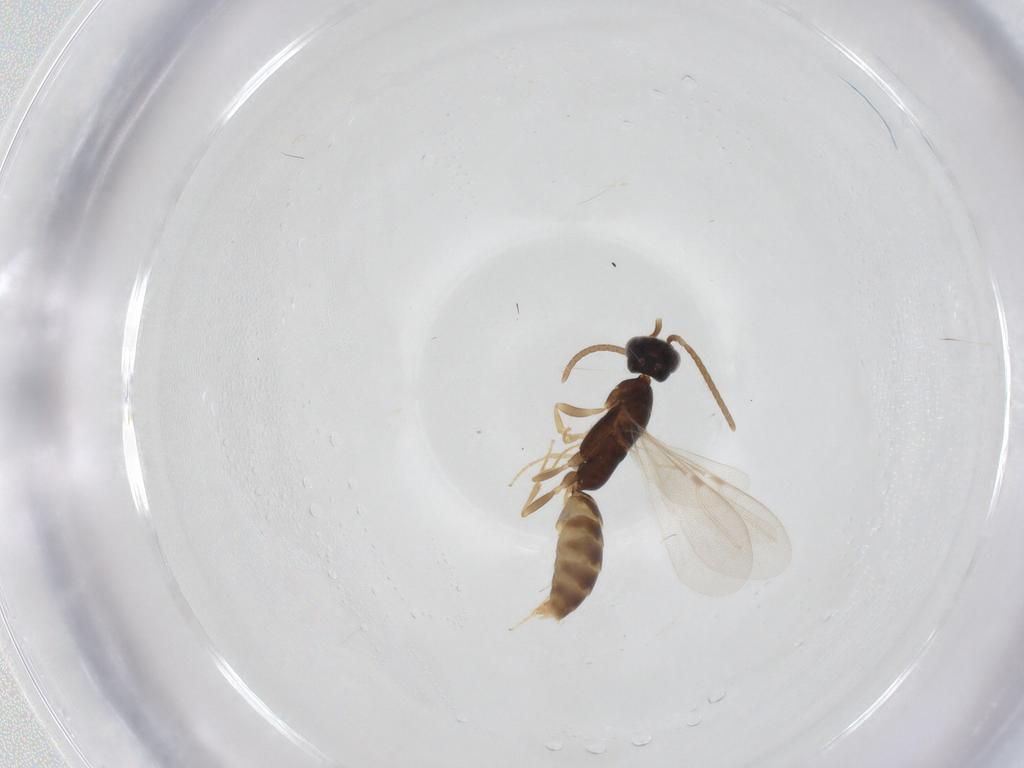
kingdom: Animalia
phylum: Arthropoda
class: Insecta
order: Hymenoptera
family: Bethylidae
